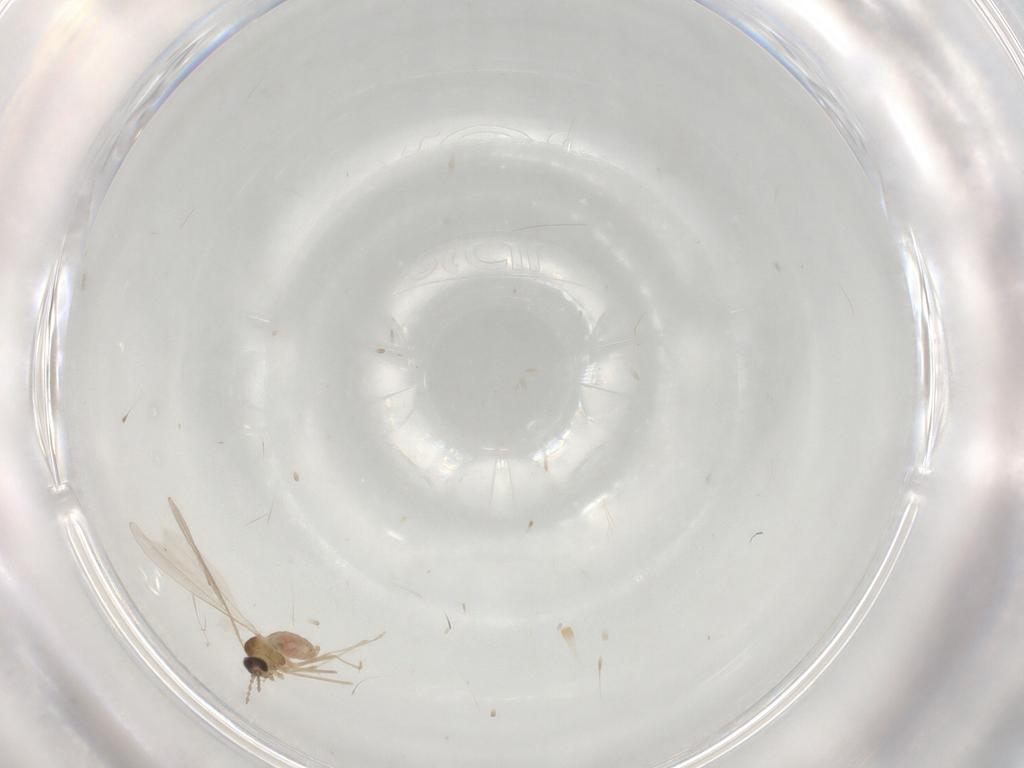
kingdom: Animalia
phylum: Arthropoda
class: Insecta
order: Diptera
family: Cecidomyiidae
